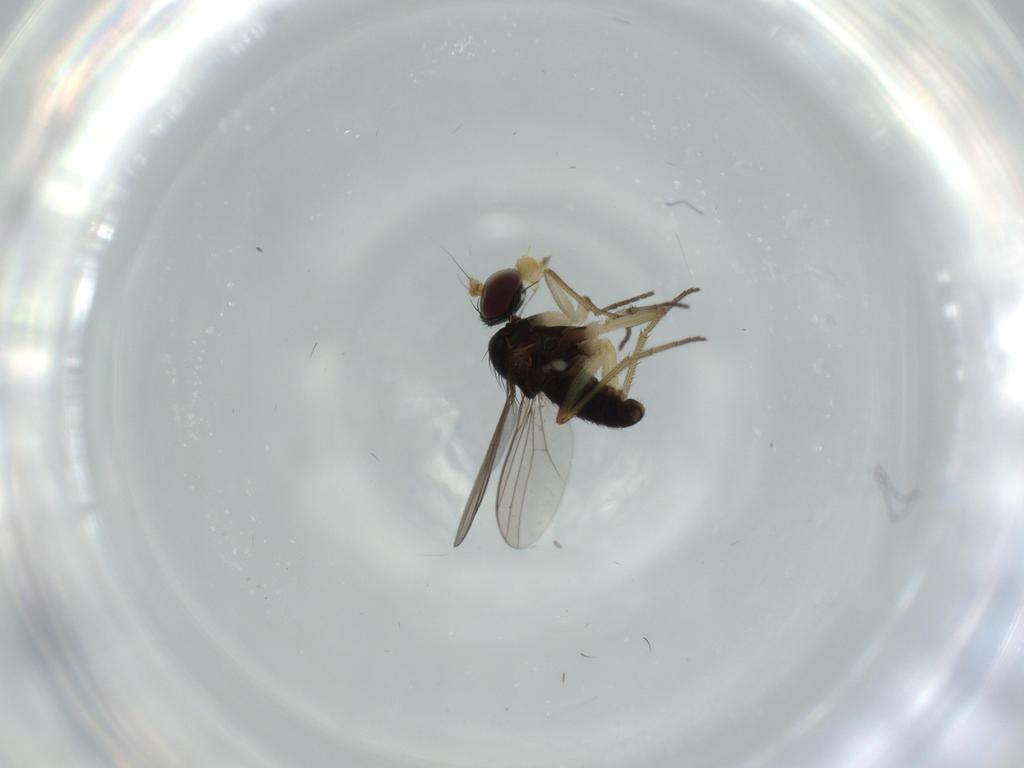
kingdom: Animalia
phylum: Arthropoda
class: Insecta
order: Diptera
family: Dolichopodidae
